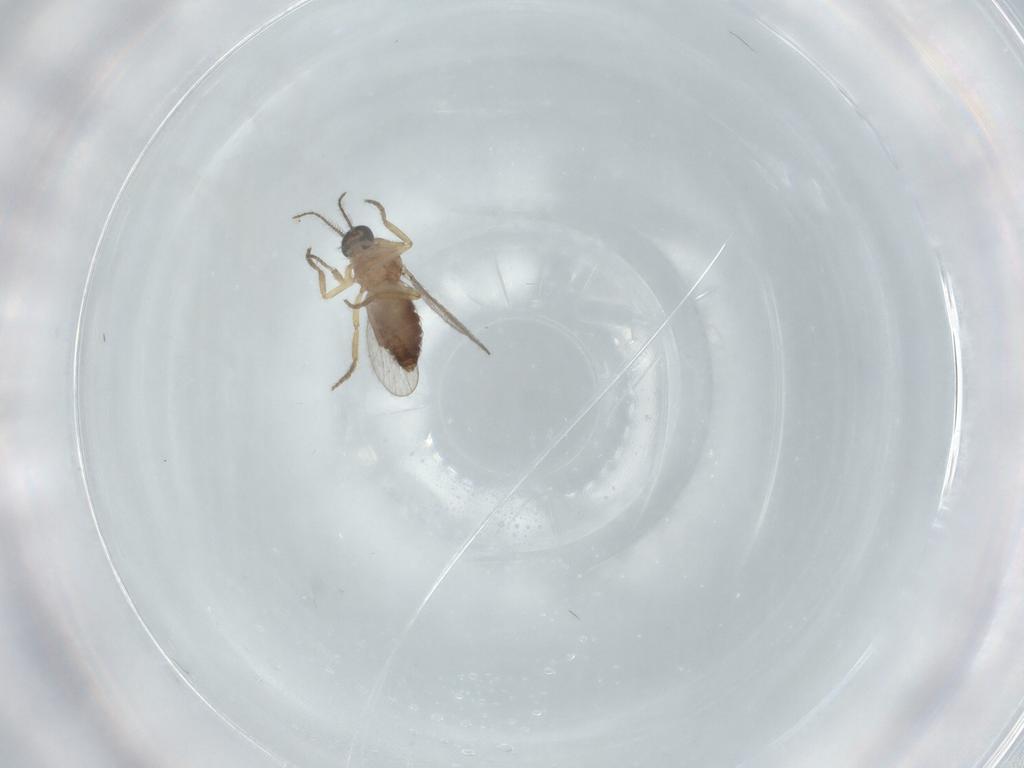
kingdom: Animalia
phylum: Arthropoda
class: Insecta
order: Diptera
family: Ceratopogonidae
